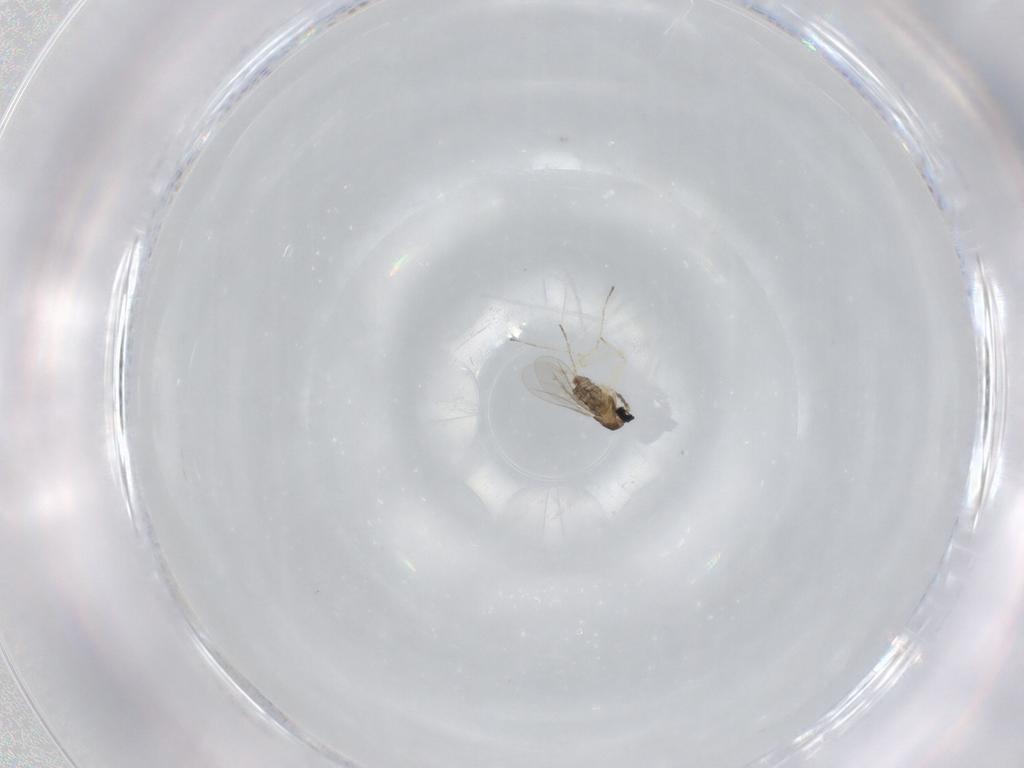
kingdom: Animalia
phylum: Arthropoda
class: Insecta
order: Diptera
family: Cecidomyiidae
